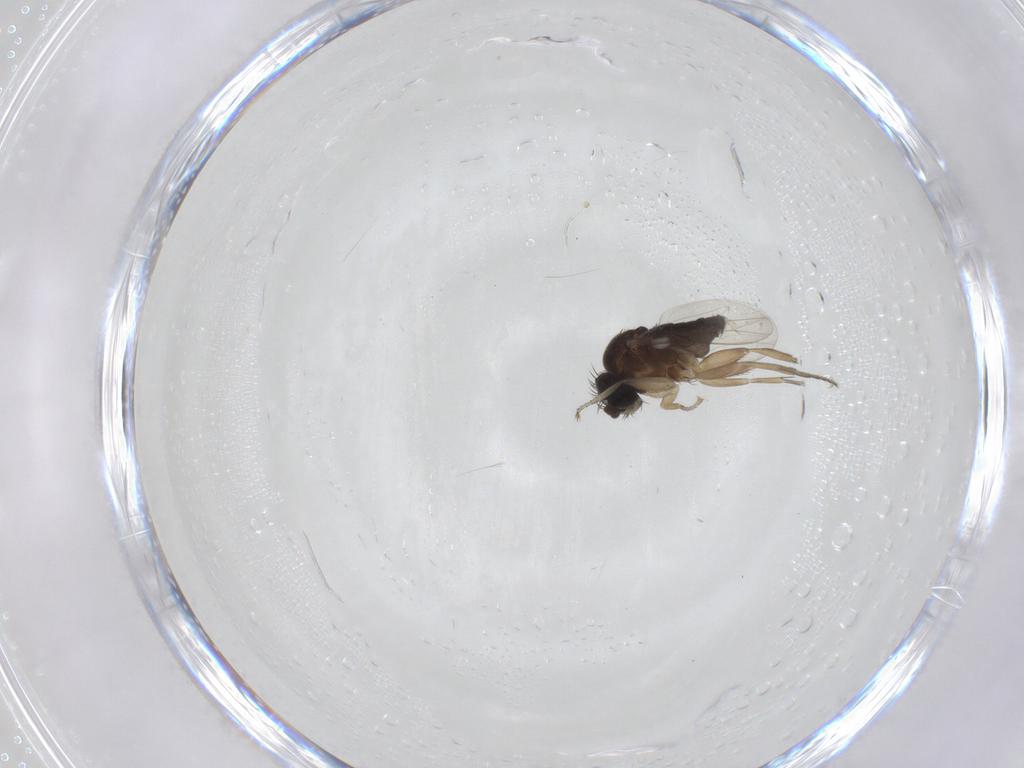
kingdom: Animalia
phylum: Arthropoda
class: Insecta
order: Diptera
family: Phoridae
